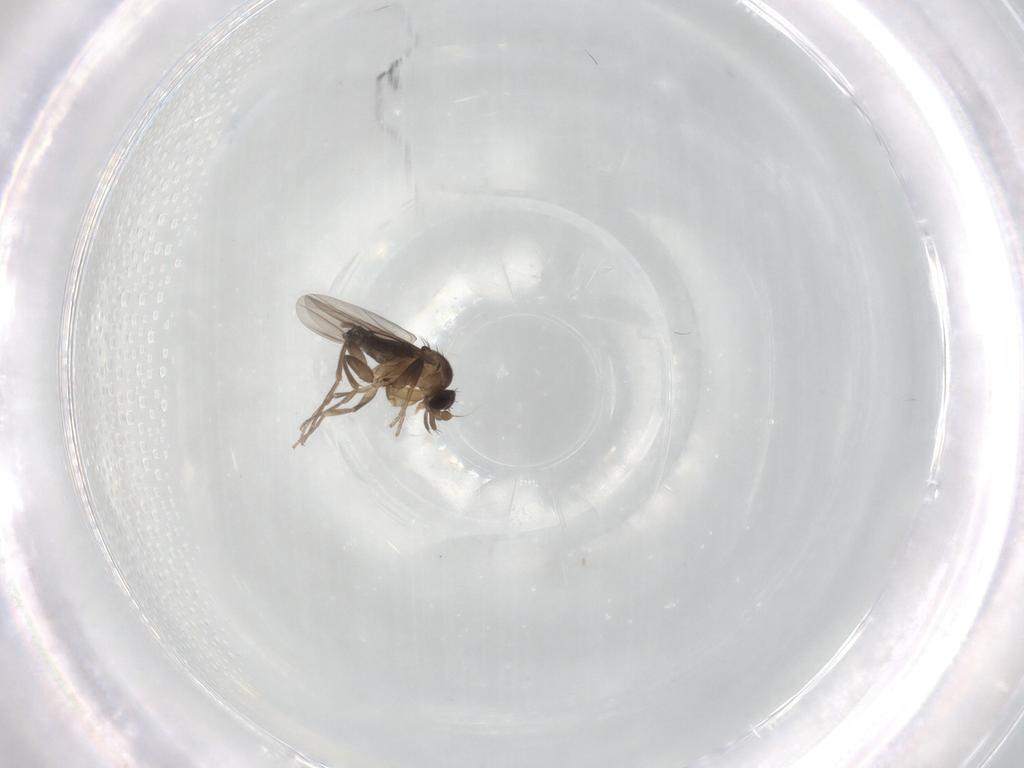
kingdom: Animalia
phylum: Arthropoda
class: Insecta
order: Diptera
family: Phoridae
